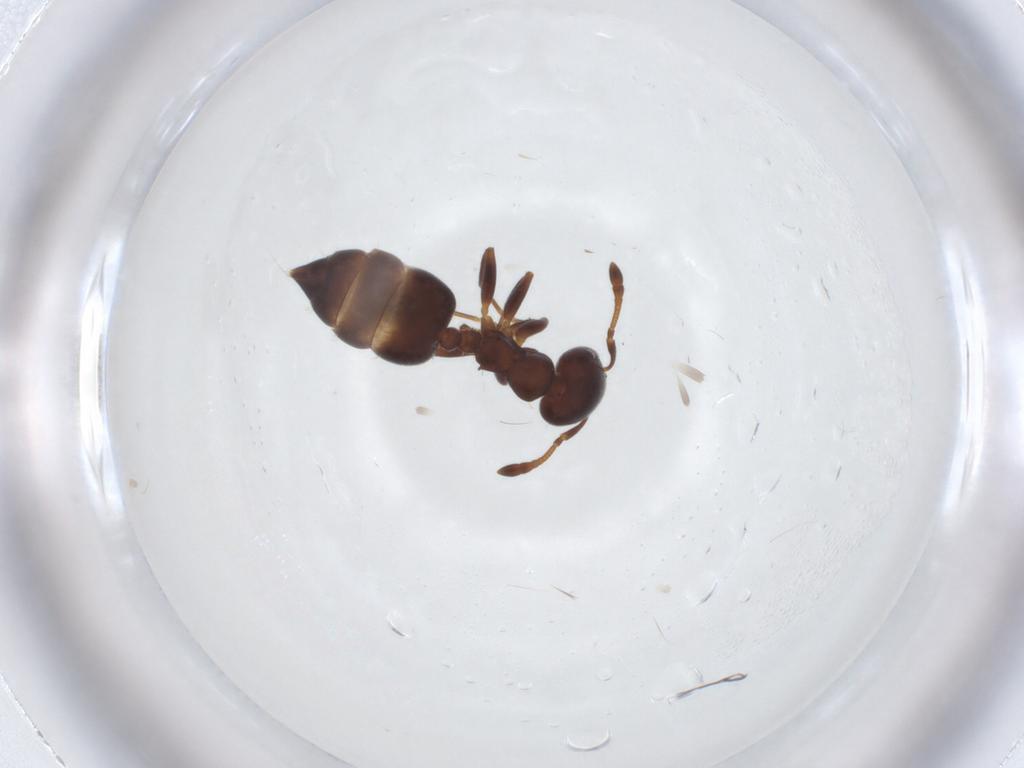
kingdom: Animalia
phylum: Arthropoda
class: Insecta
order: Hymenoptera
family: Formicidae
